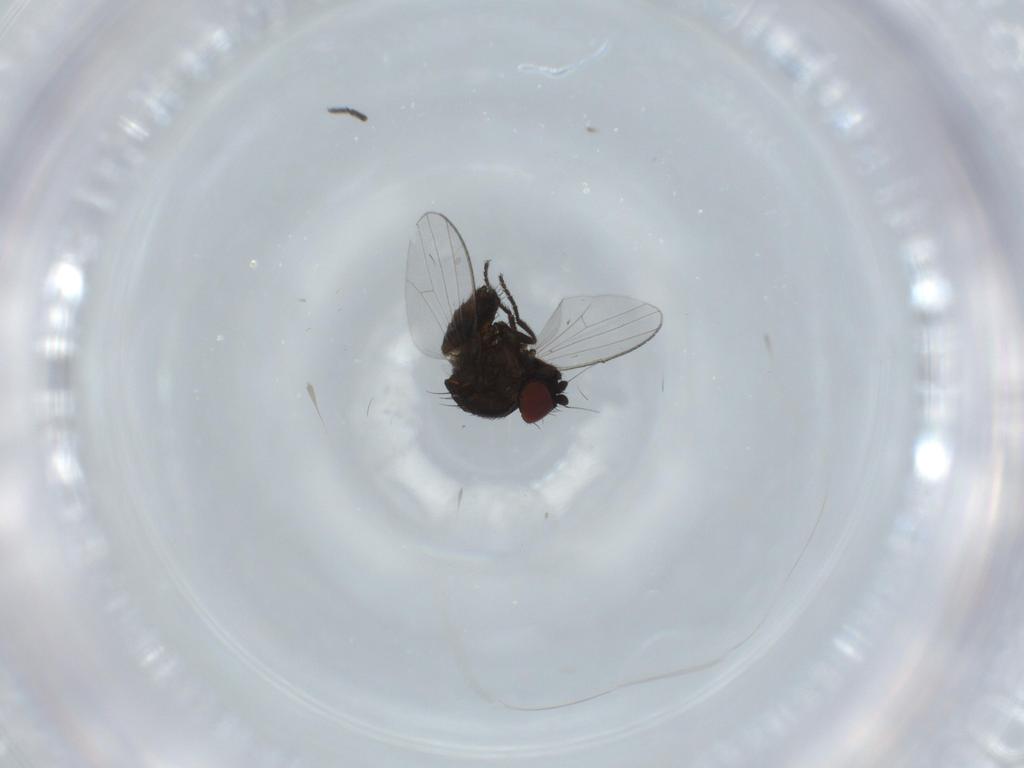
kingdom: Animalia
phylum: Arthropoda
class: Insecta
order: Diptera
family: Milichiidae
